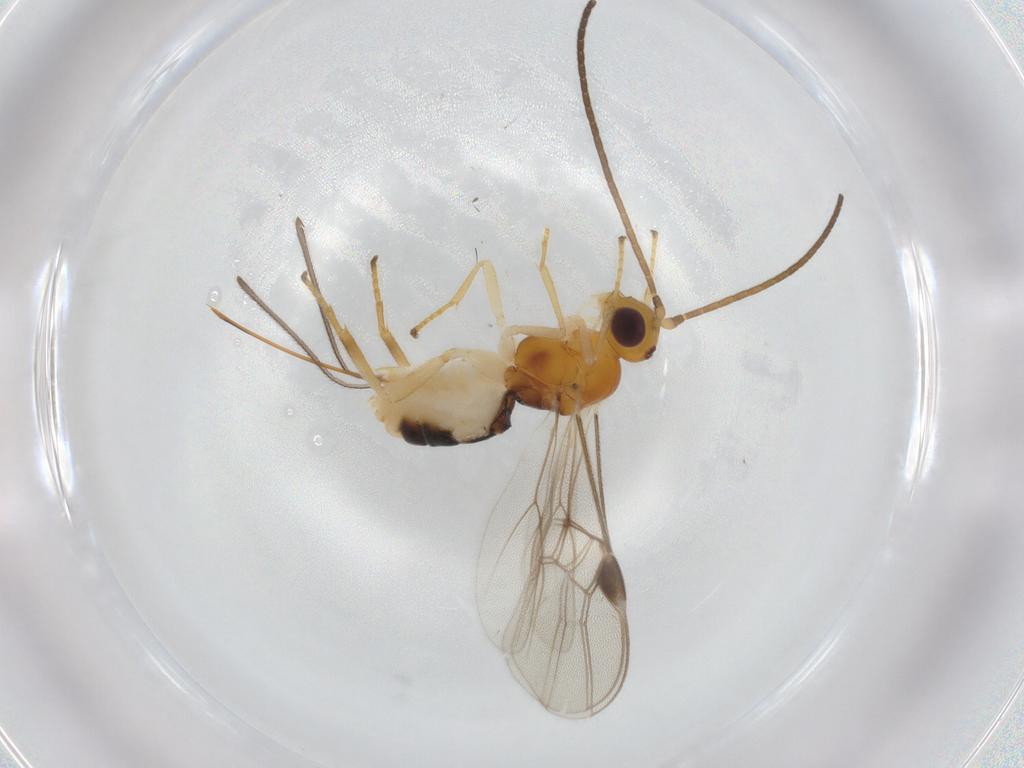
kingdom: Animalia
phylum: Arthropoda
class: Insecta
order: Hymenoptera
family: Braconidae
